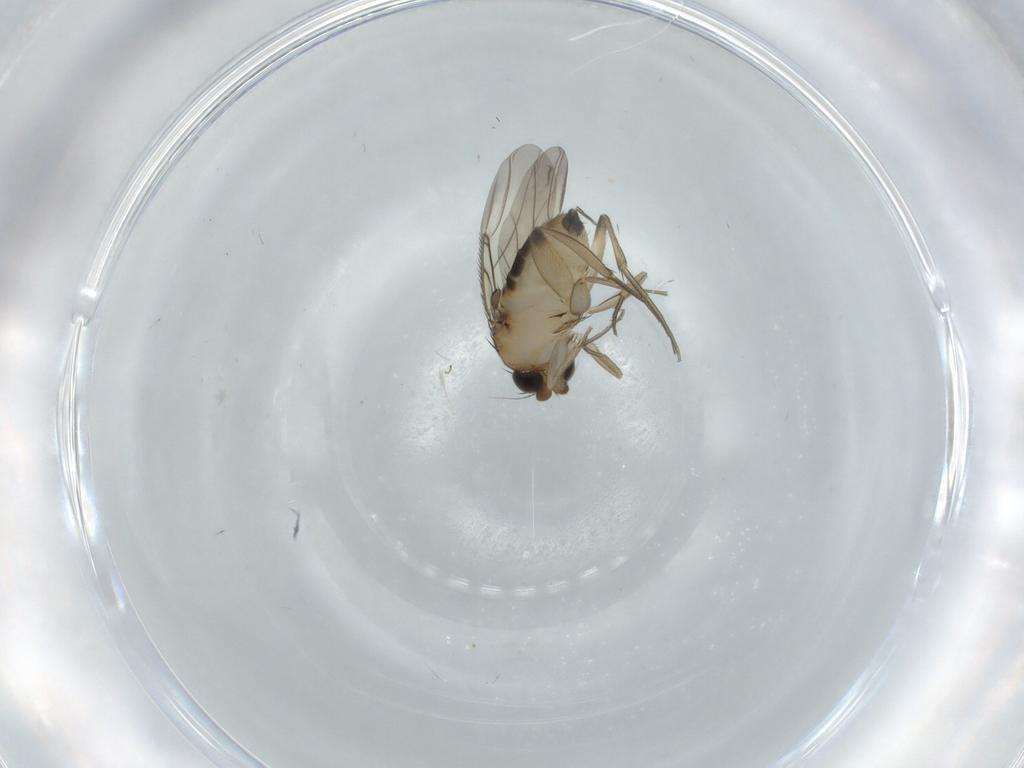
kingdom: Animalia
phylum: Arthropoda
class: Insecta
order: Diptera
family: Phoridae
